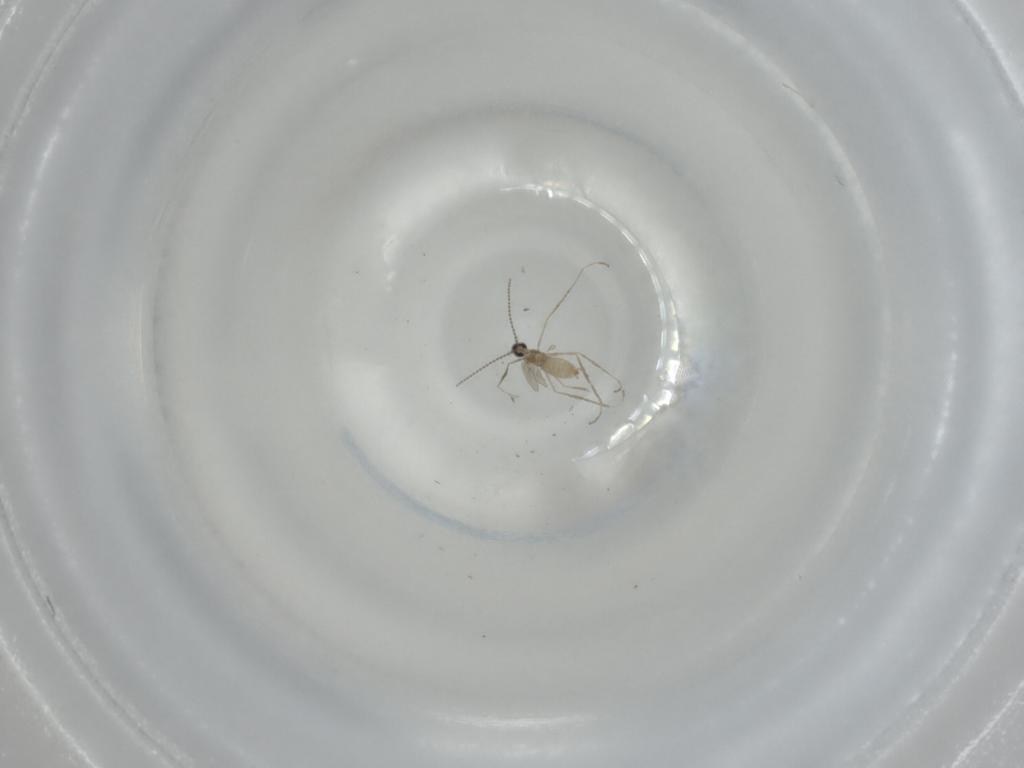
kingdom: Animalia
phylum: Arthropoda
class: Insecta
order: Diptera
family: Ceratopogonidae
